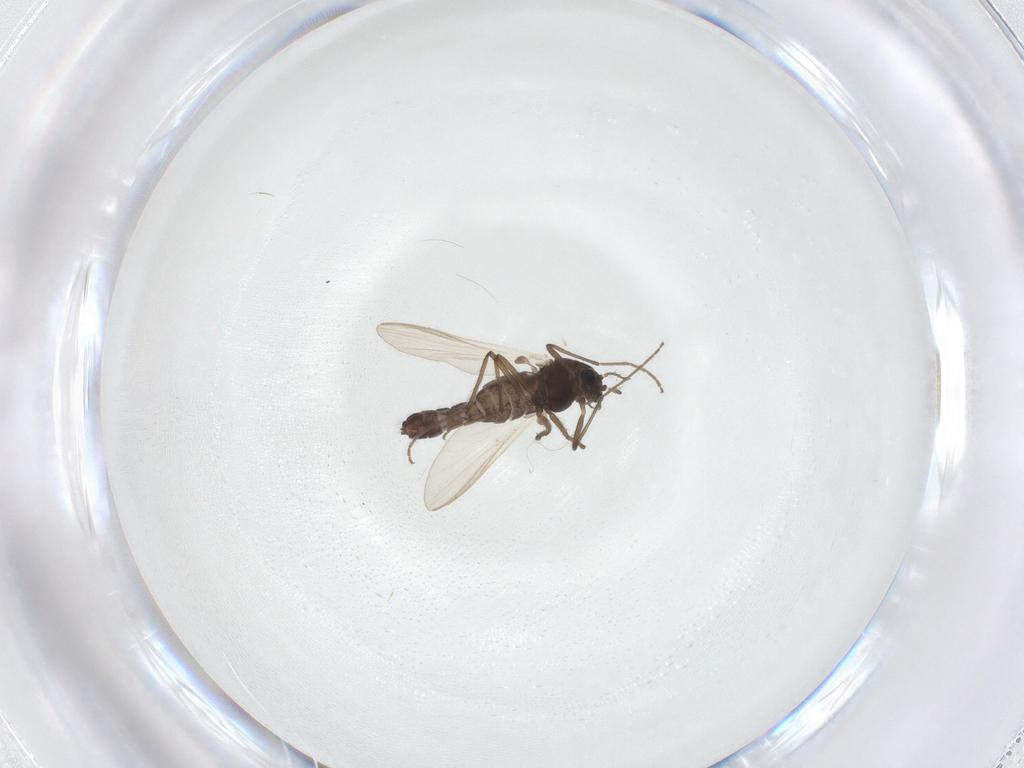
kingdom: Animalia
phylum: Arthropoda
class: Insecta
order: Diptera
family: Chironomidae
